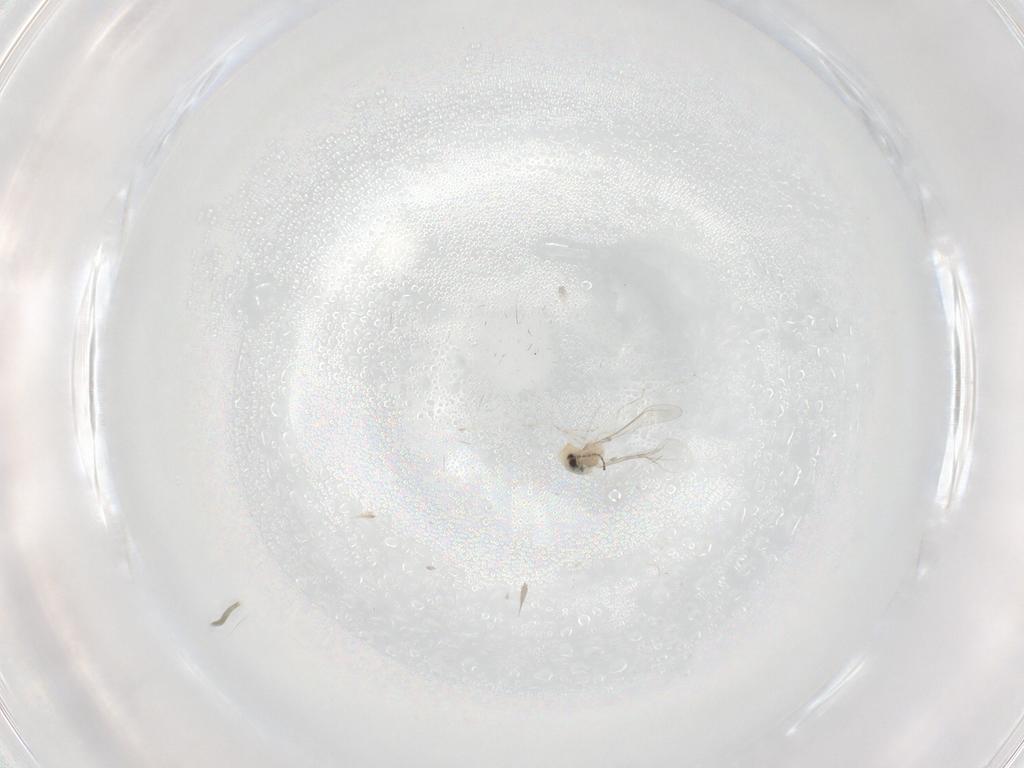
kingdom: Animalia
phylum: Arthropoda
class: Insecta
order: Diptera
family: Cecidomyiidae
